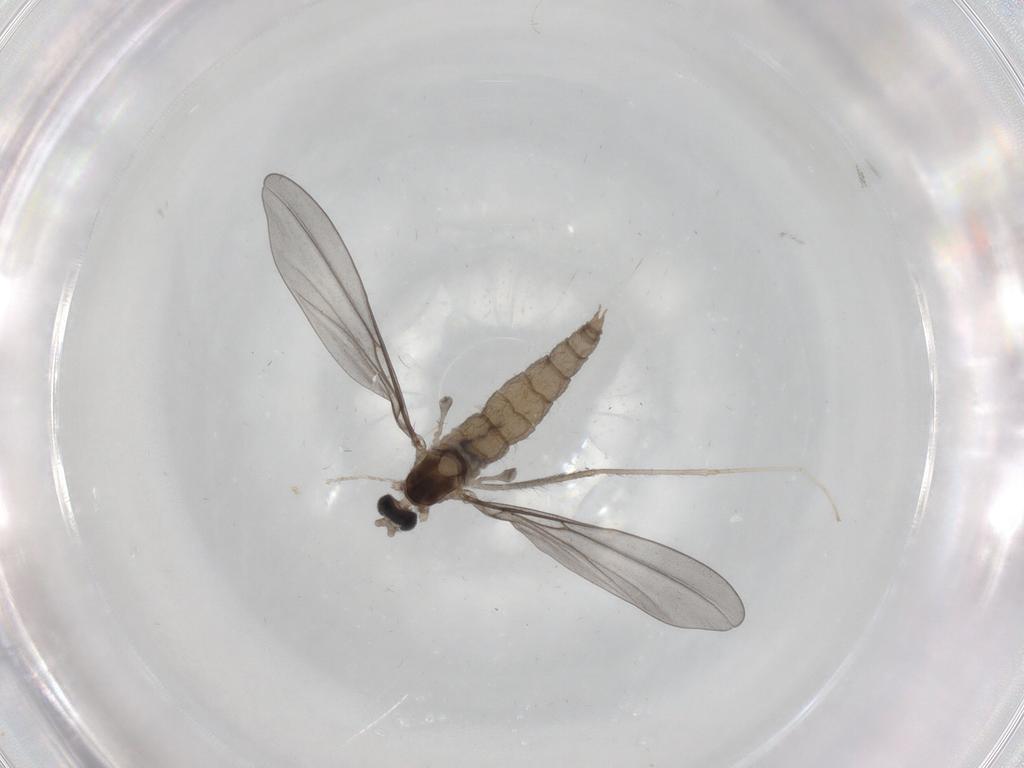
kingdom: Animalia
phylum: Arthropoda
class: Insecta
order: Diptera
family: Cecidomyiidae
